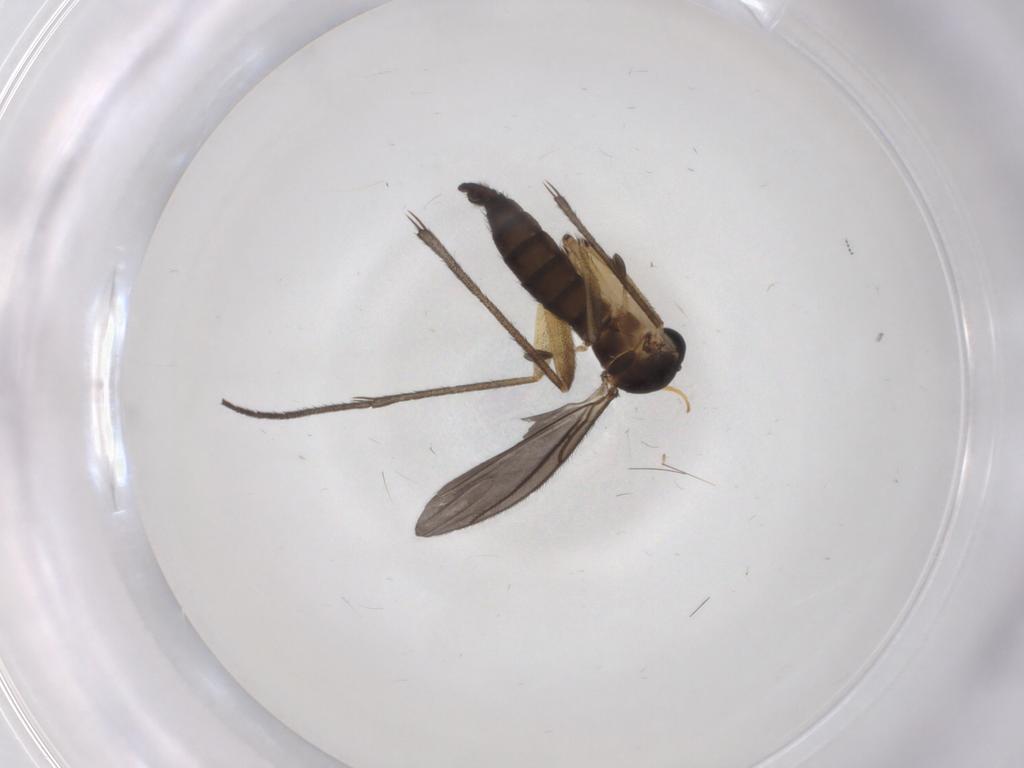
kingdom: Animalia
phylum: Arthropoda
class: Insecta
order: Diptera
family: Sciaridae
